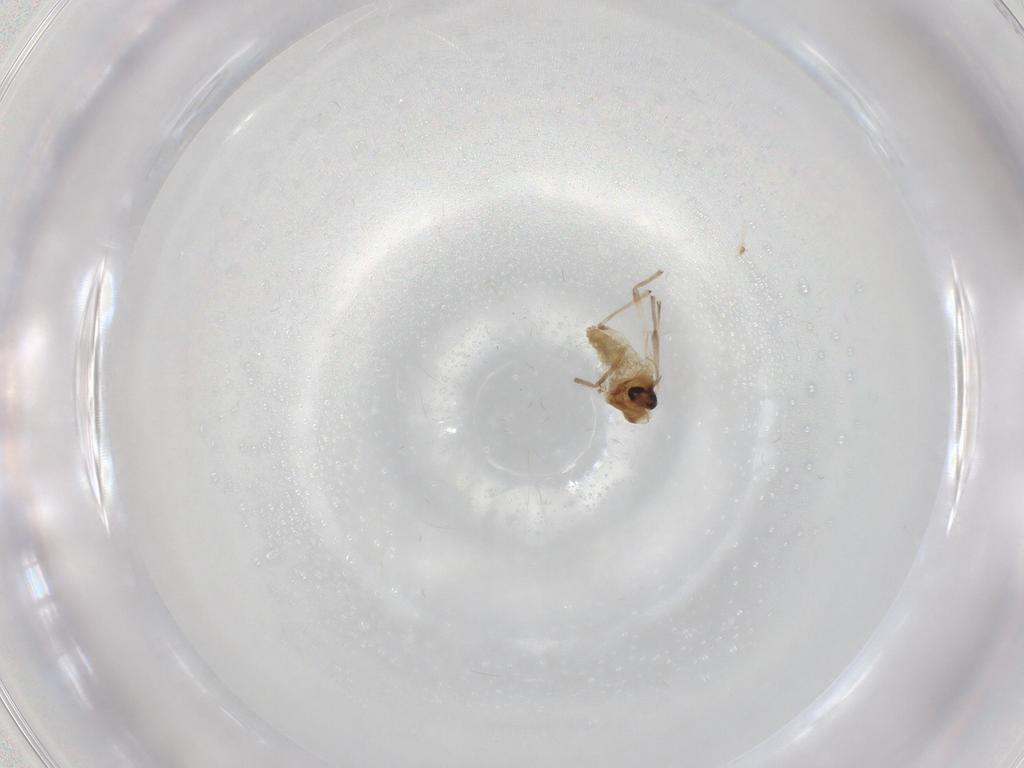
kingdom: Animalia
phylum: Arthropoda
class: Insecta
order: Diptera
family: Chironomidae
